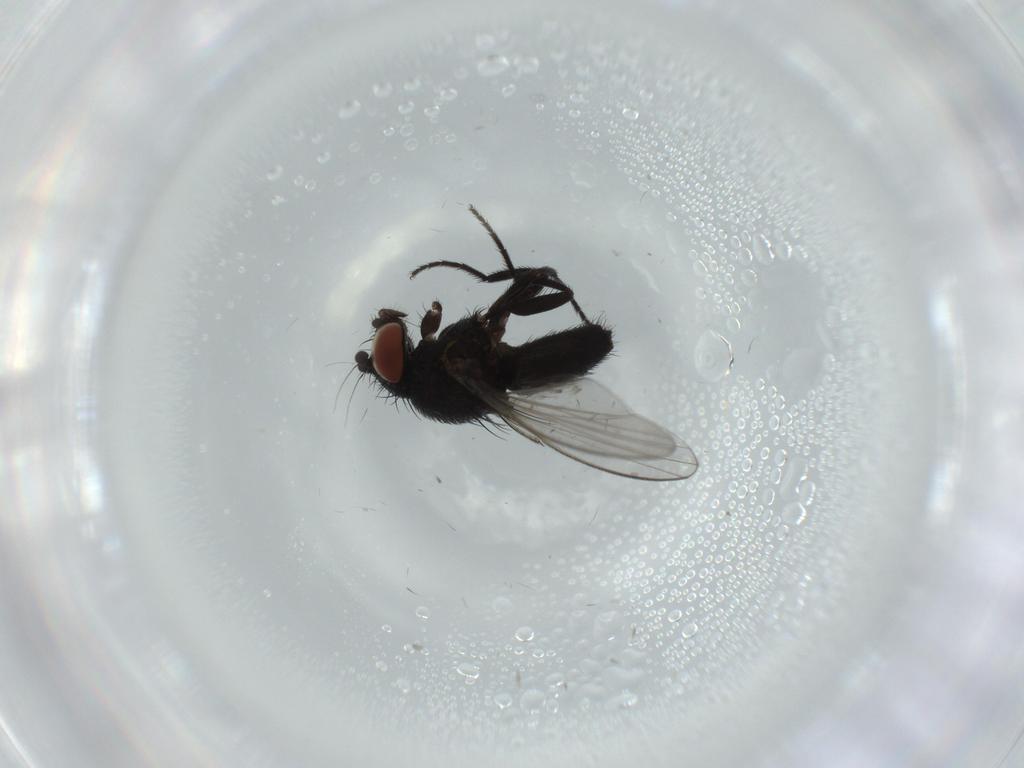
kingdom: Animalia
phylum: Arthropoda
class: Insecta
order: Diptera
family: Milichiidae
